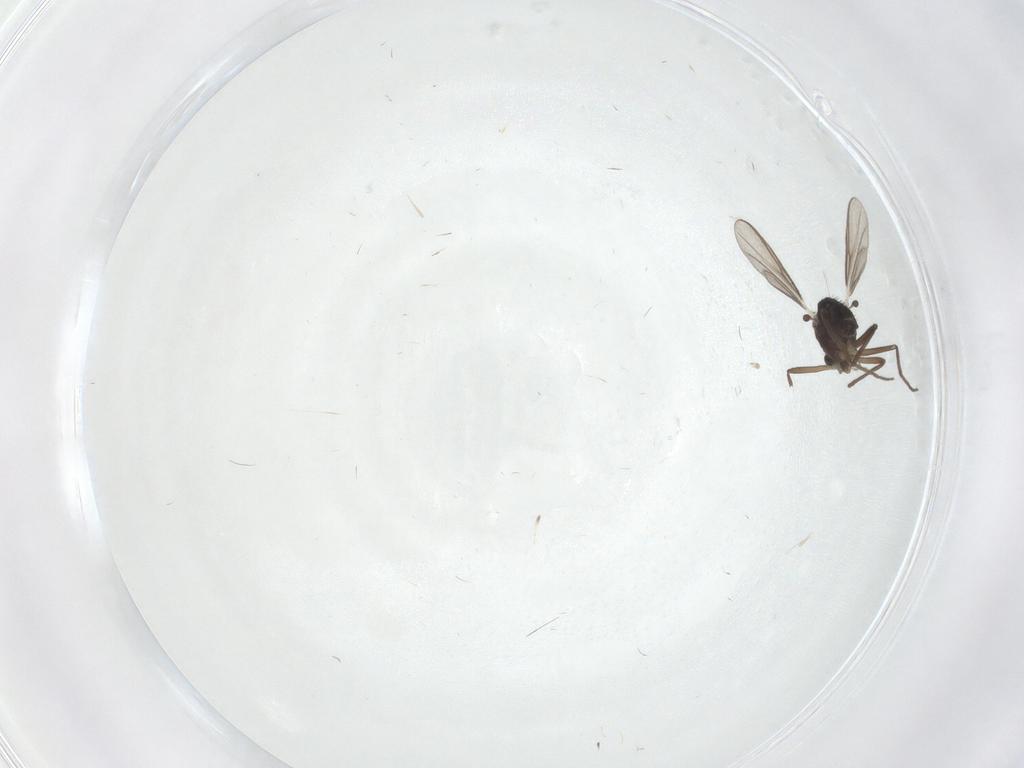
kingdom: Animalia
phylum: Arthropoda
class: Insecta
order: Diptera
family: Chironomidae
